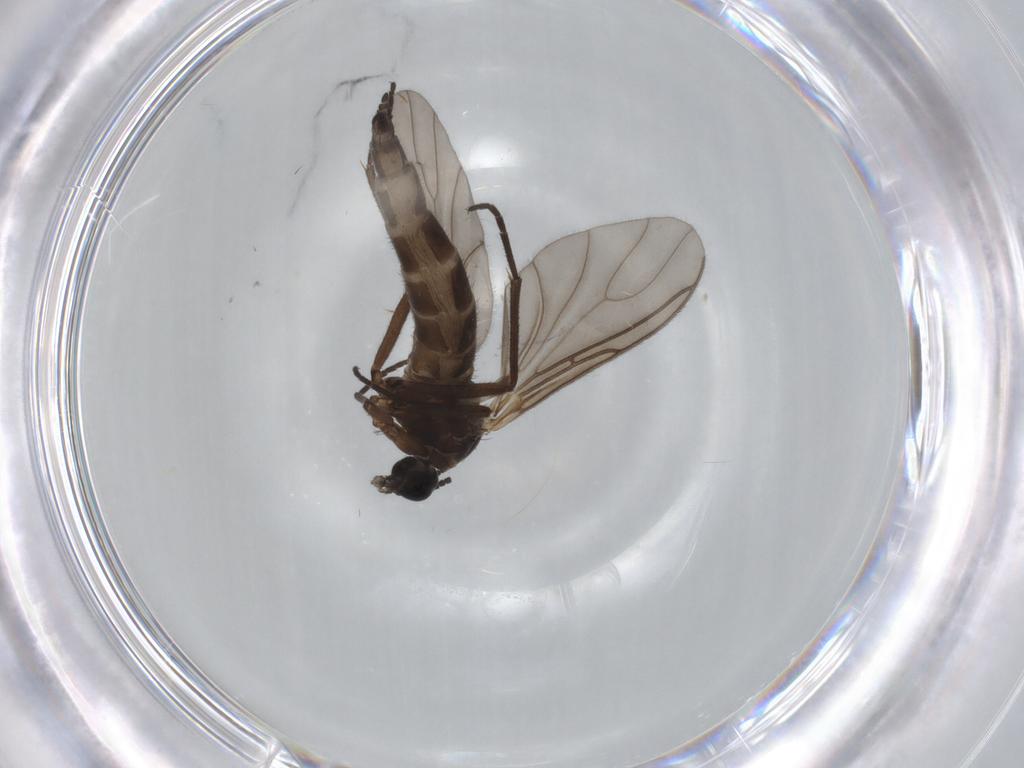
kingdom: Animalia
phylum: Arthropoda
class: Insecta
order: Diptera
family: Sciaridae
